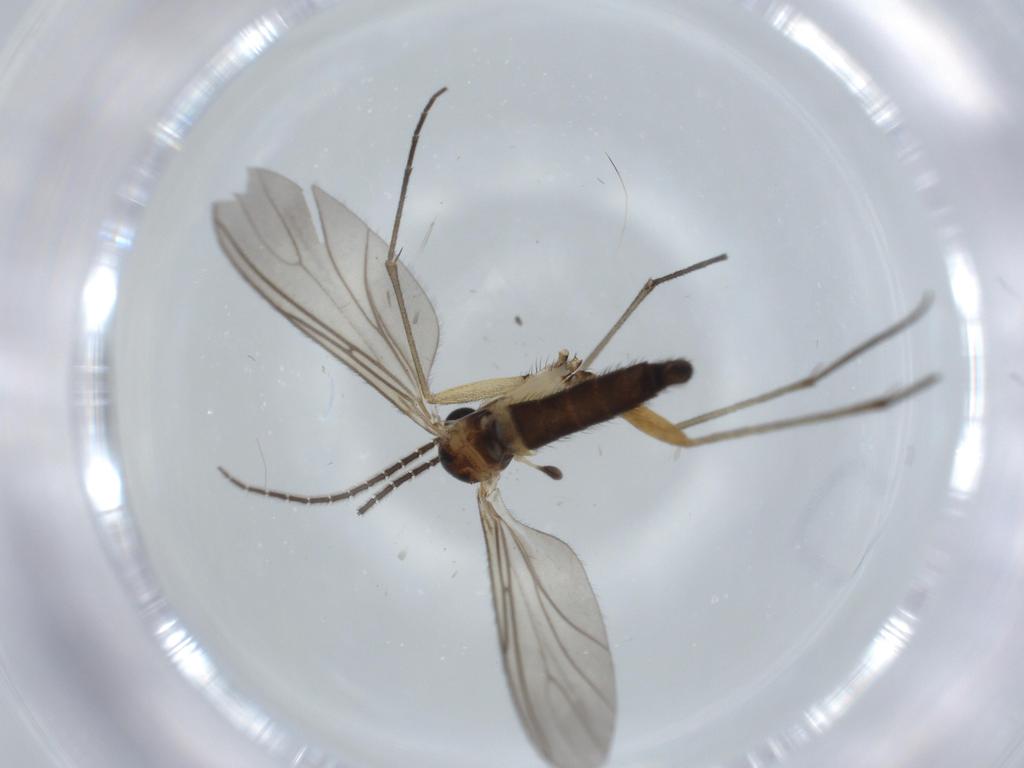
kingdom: Animalia
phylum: Arthropoda
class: Insecta
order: Diptera
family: Sciaridae
